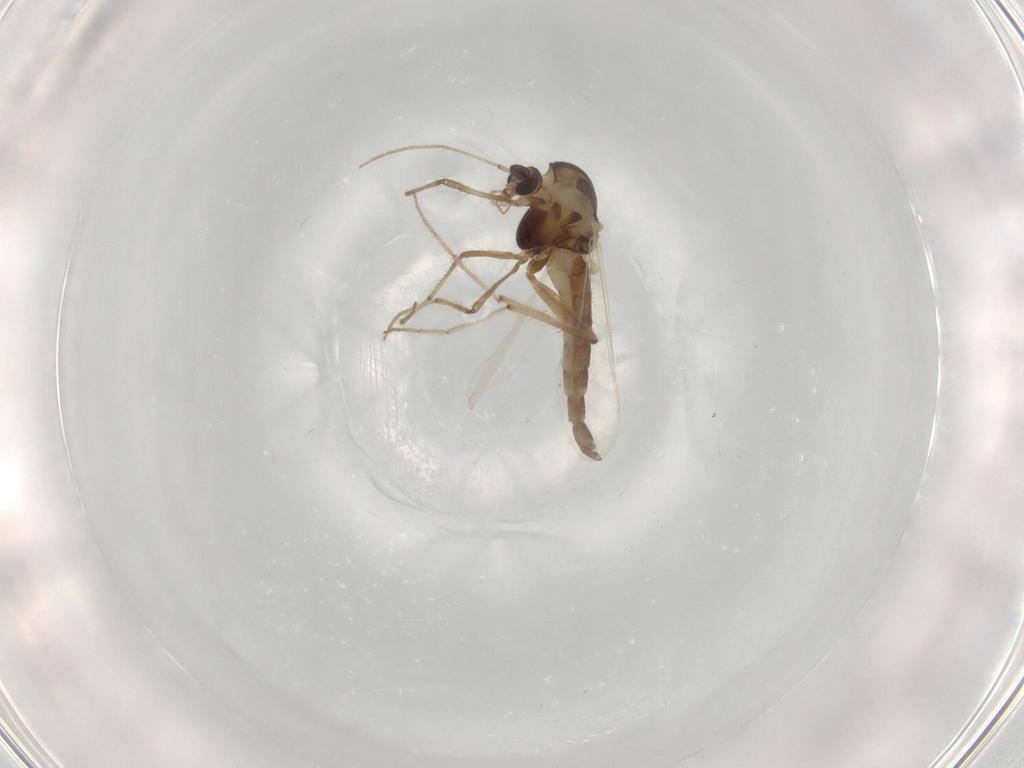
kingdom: Animalia
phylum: Arthropoda
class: Insecta
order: Diptera
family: Chironomidae
